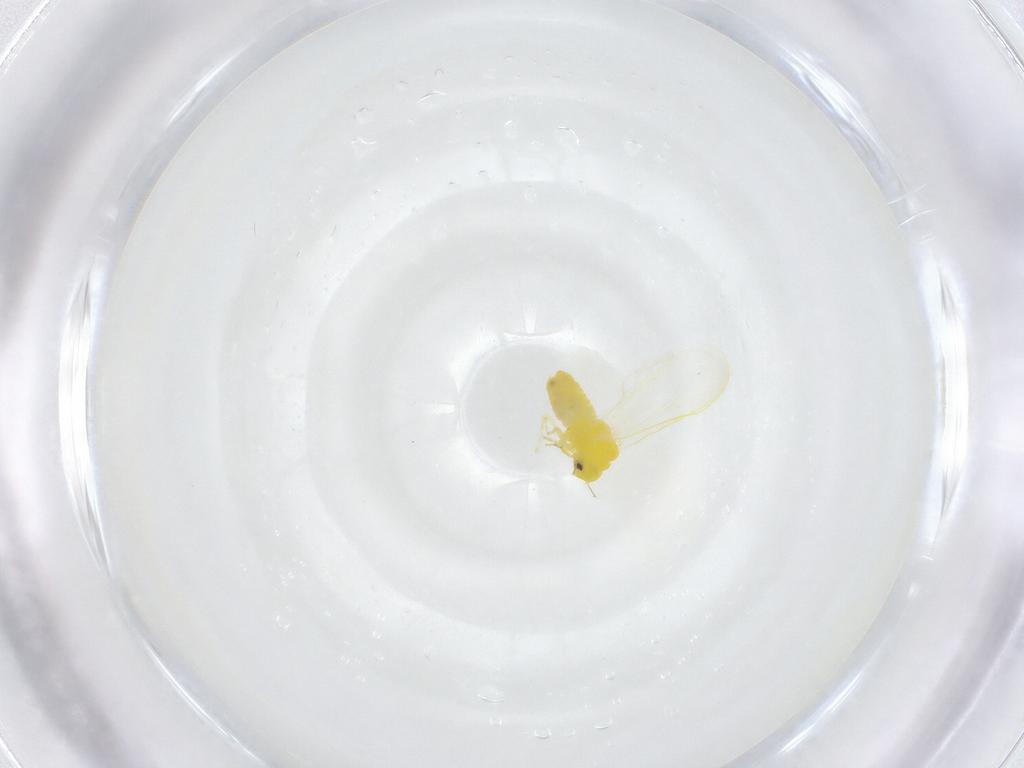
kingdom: Animalia
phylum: Arthropoda
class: Insecta
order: Hemiptera
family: Aleyrodidae
